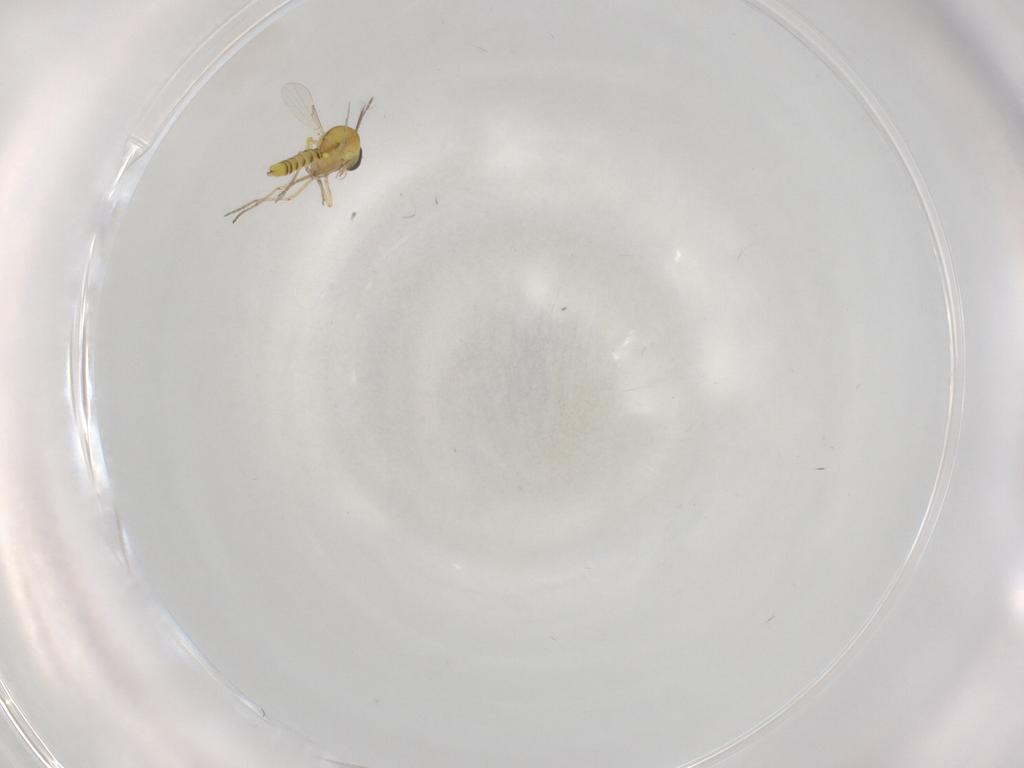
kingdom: Animalia
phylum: Arthropoda
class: Insecta
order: Diptera
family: Ceratopogonidae
